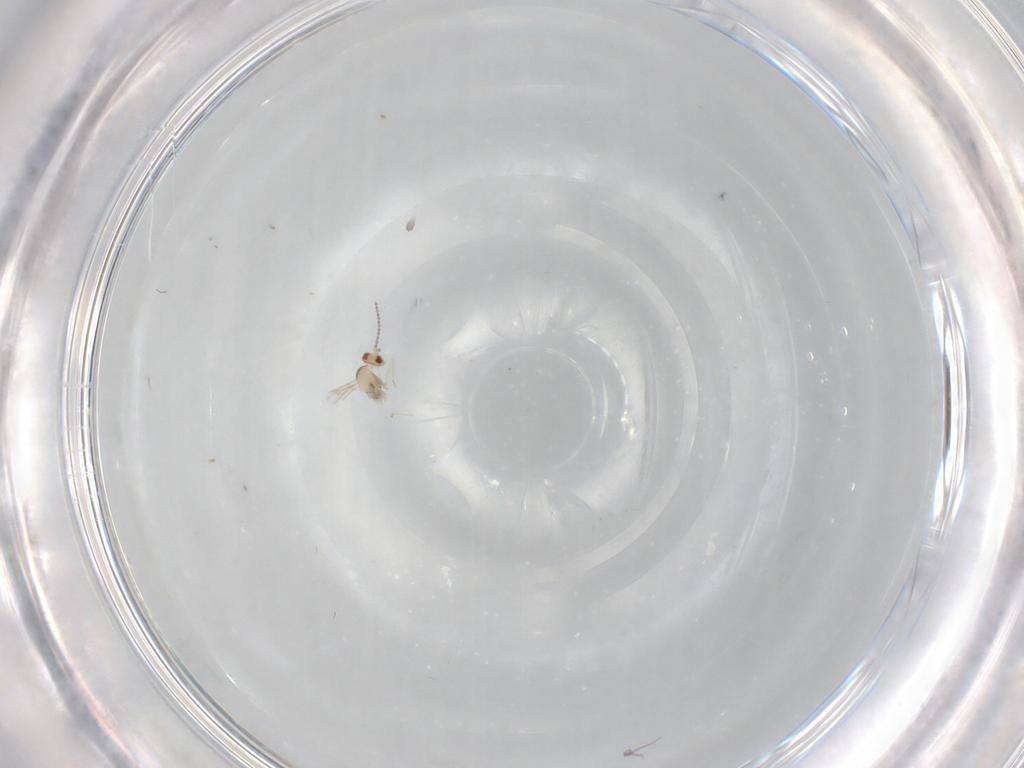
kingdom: Animalia
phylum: Arthropoda
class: Insecta
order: Diptera
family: Cecidomyiidae
